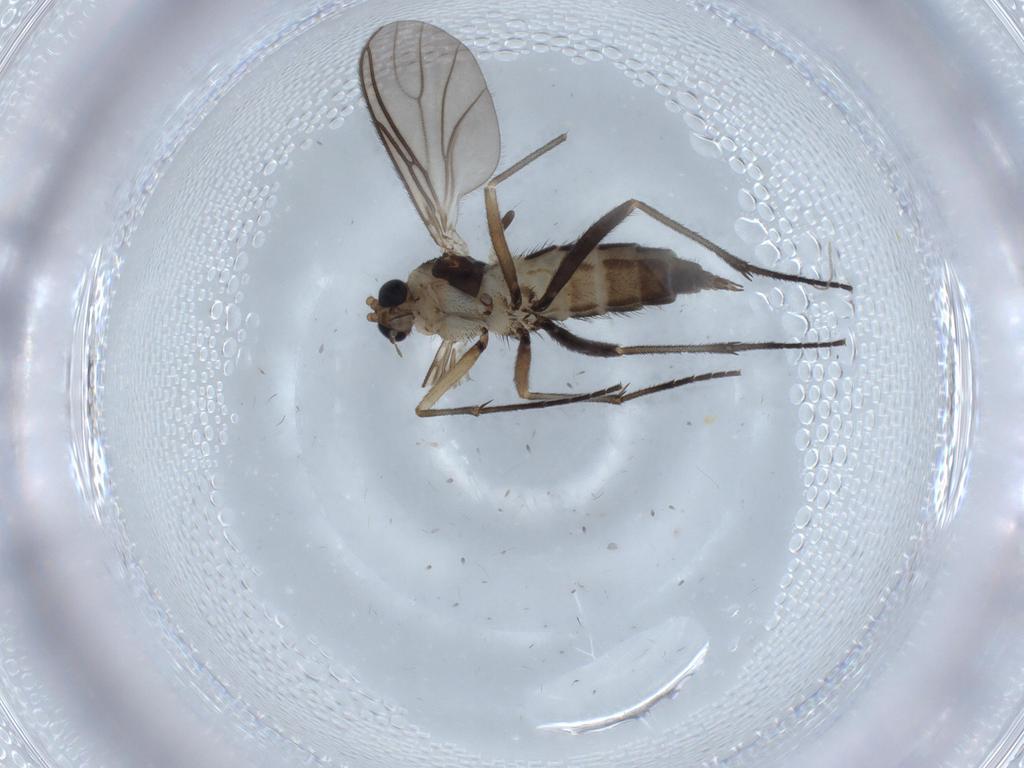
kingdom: Animalia
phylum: Arthropoda
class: Insecta
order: Diptera
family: Sciaridae
